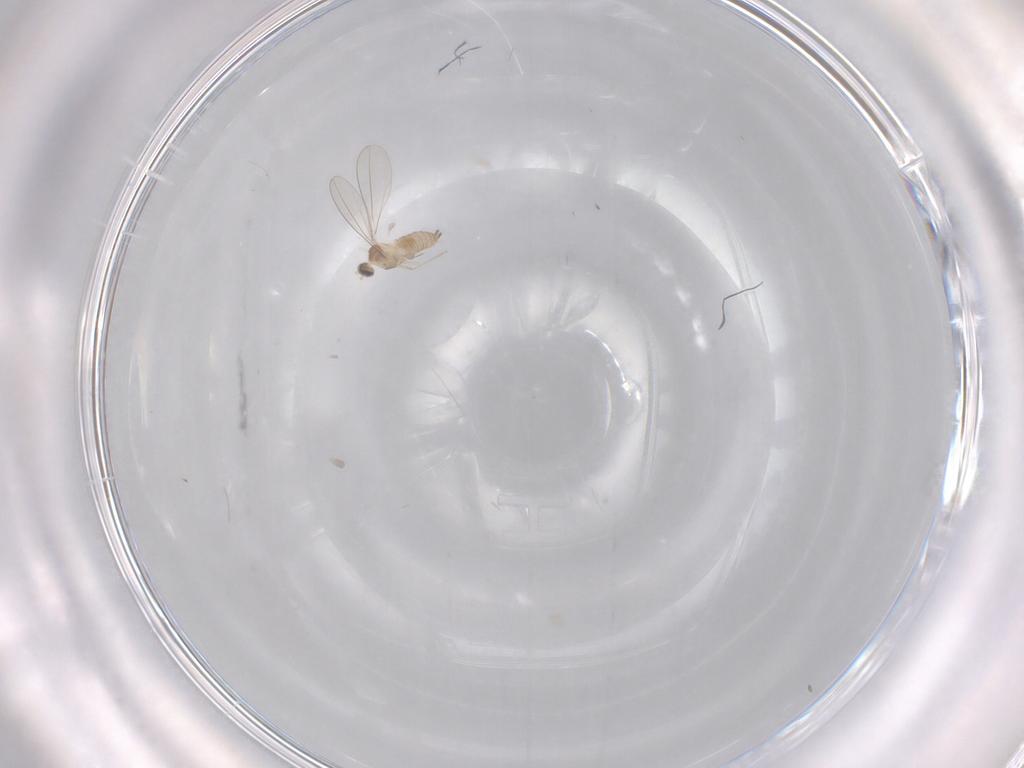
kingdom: Animalia
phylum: Arthropoda
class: Insecta
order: Diptera
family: Cecidomyiidae
